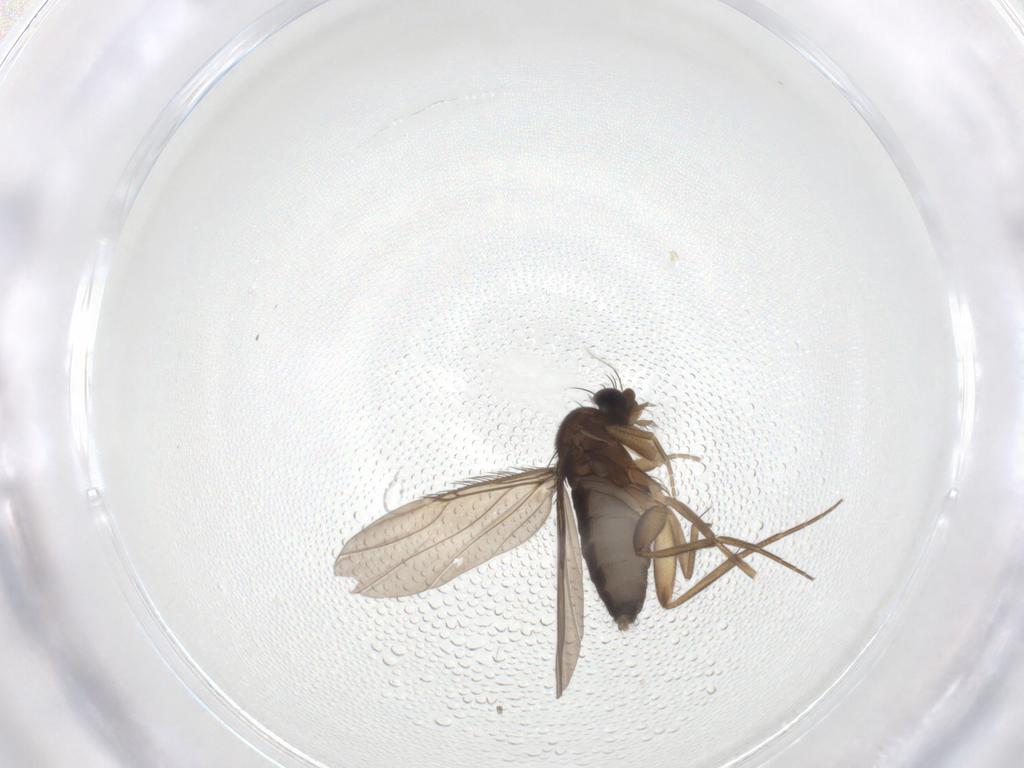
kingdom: Animalia
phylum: Arthropoda
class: Insecta
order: Diptera
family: Phoridae
